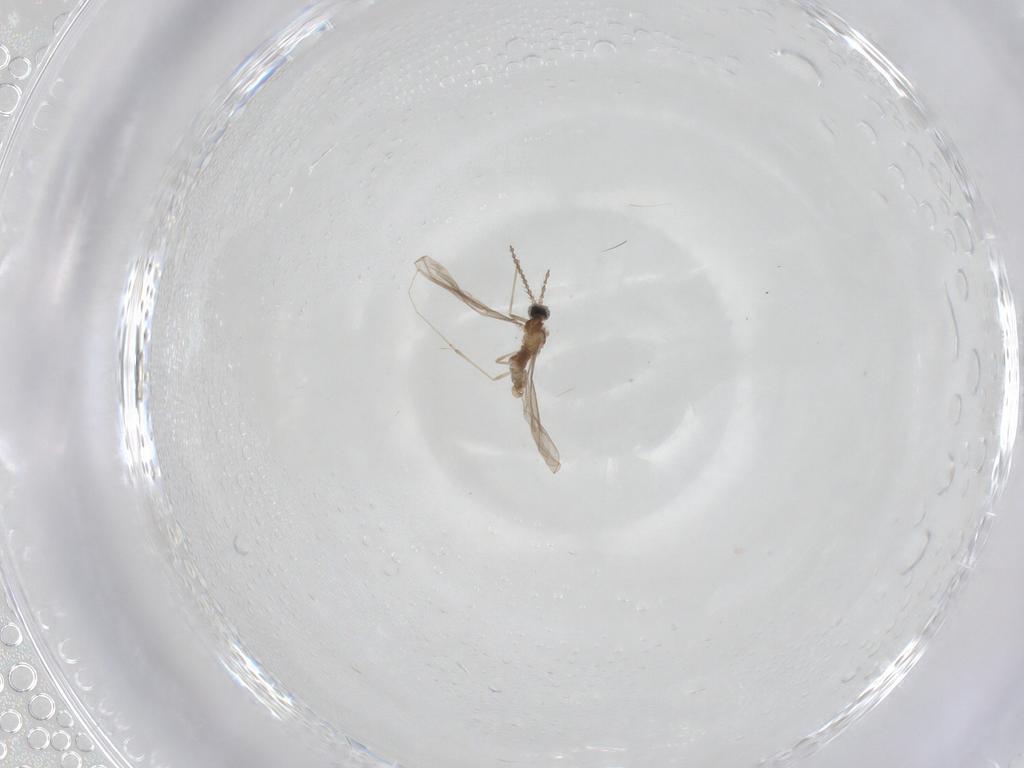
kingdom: Animalia
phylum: Arthropoda
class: Insecta
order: Diptera
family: Cecidomyiidae
